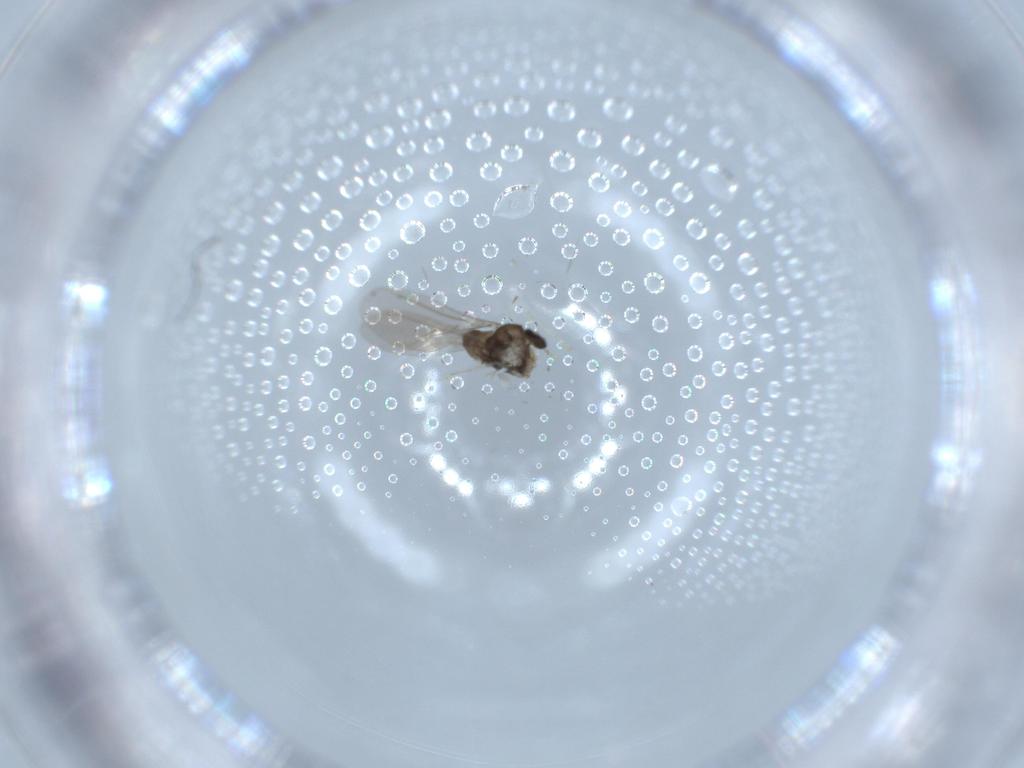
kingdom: Animalia
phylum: Arthropoda
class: Insecta
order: Diptera
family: Cecidomyiidae
